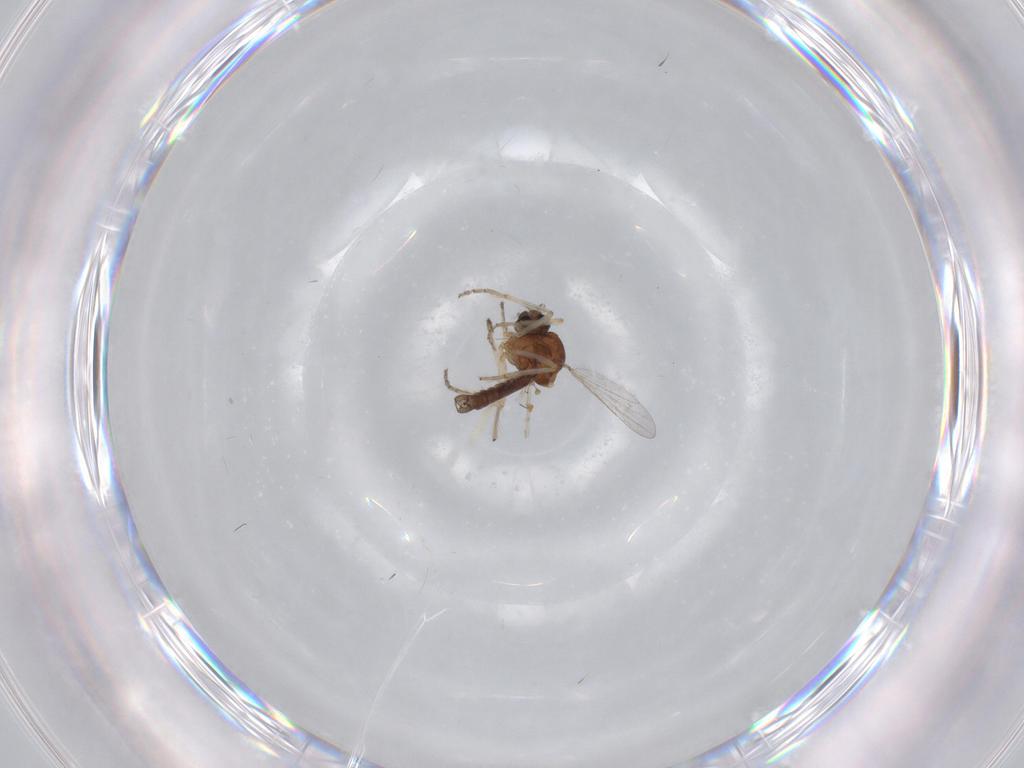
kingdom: Animalia
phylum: Arthropoda
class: Insecta
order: Diptera
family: Ceratopogonidae
